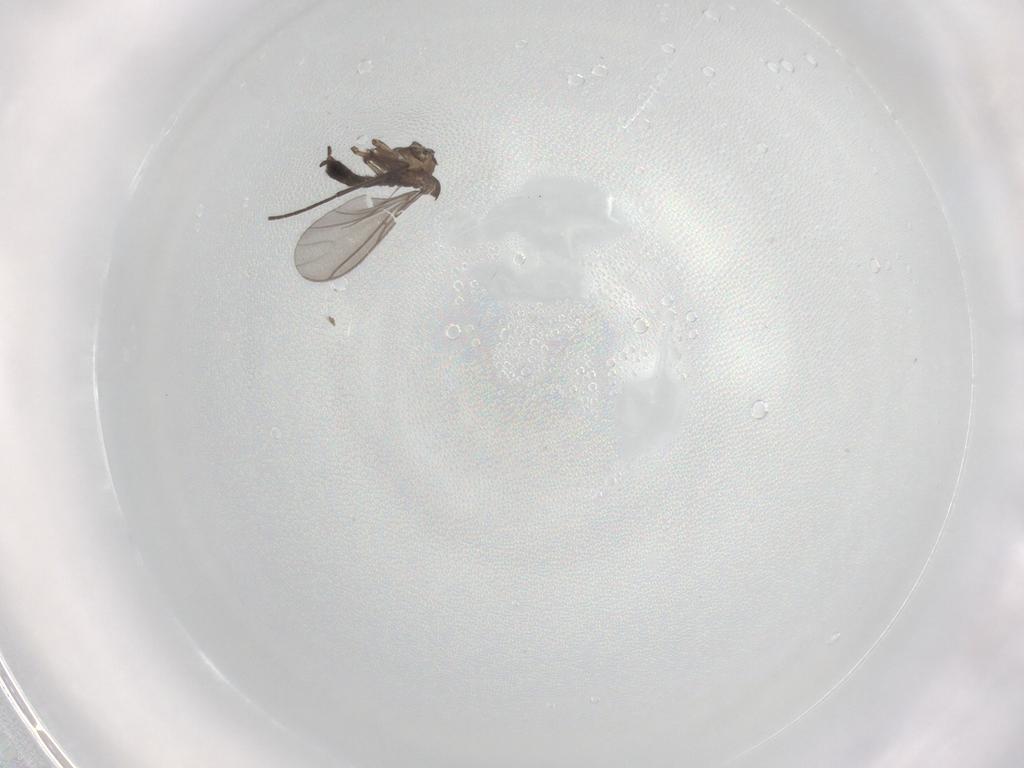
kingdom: Animalia
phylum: Arthropoda
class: Insecta
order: Diptera
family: Sciaridae
